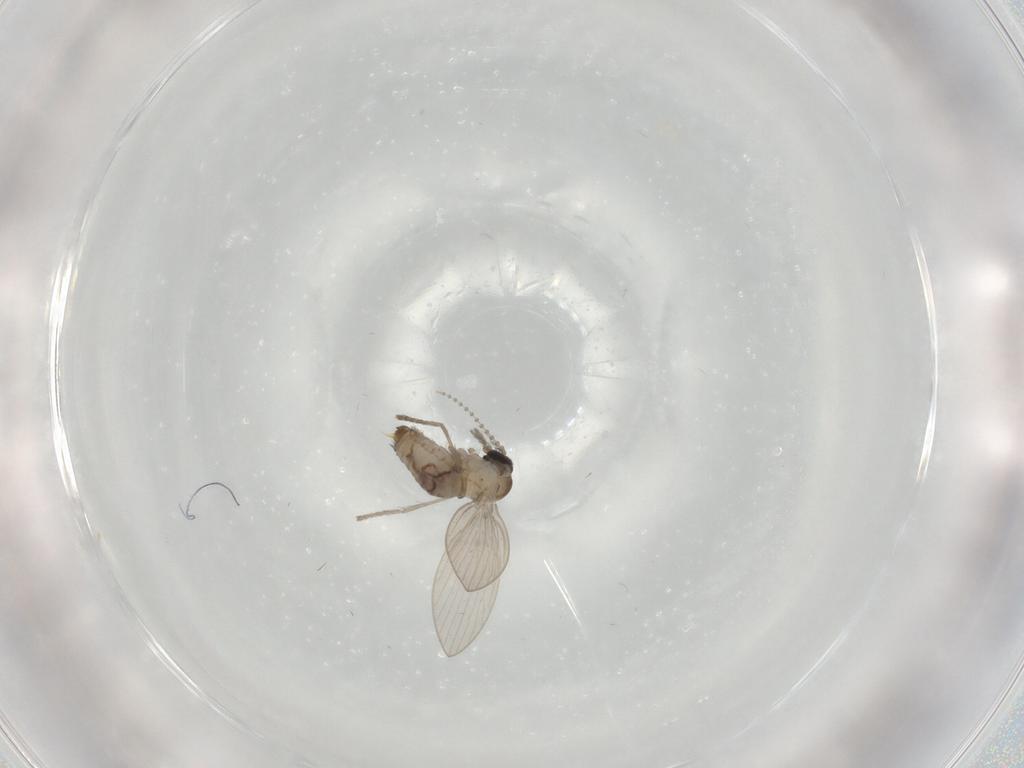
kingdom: Animalia
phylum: Arthropoda
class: Insecta
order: Diptera
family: Psychodidae
